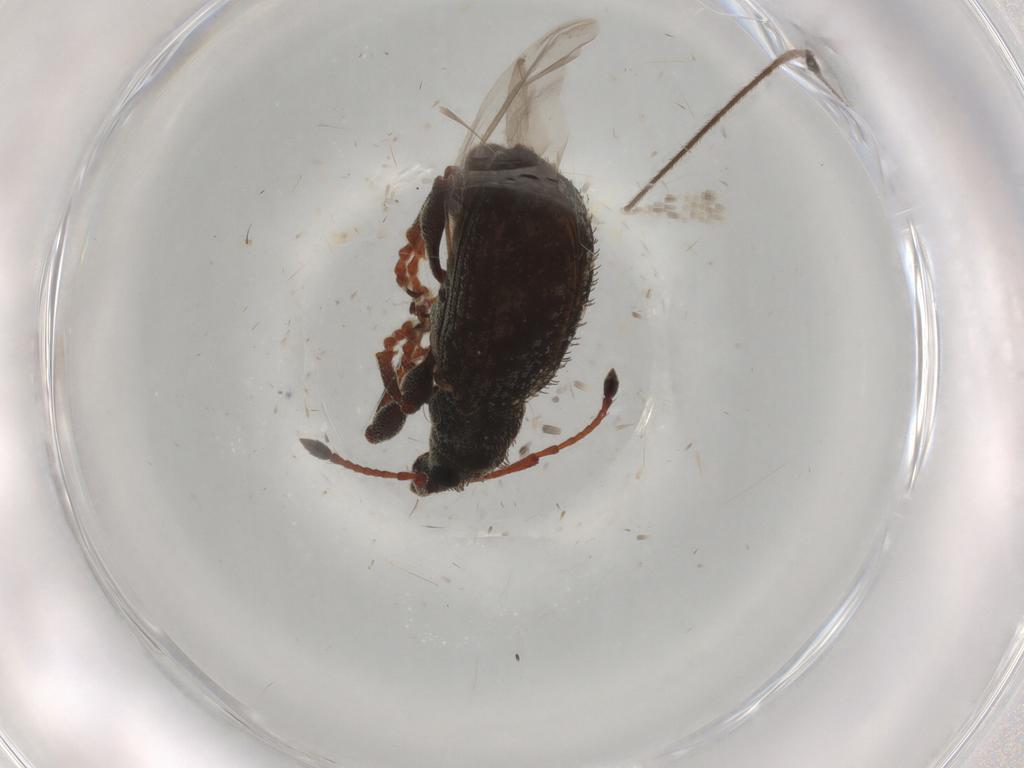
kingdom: Animalia
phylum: Arthropoda
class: Insecta
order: Coleoptera
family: Curculionidae
